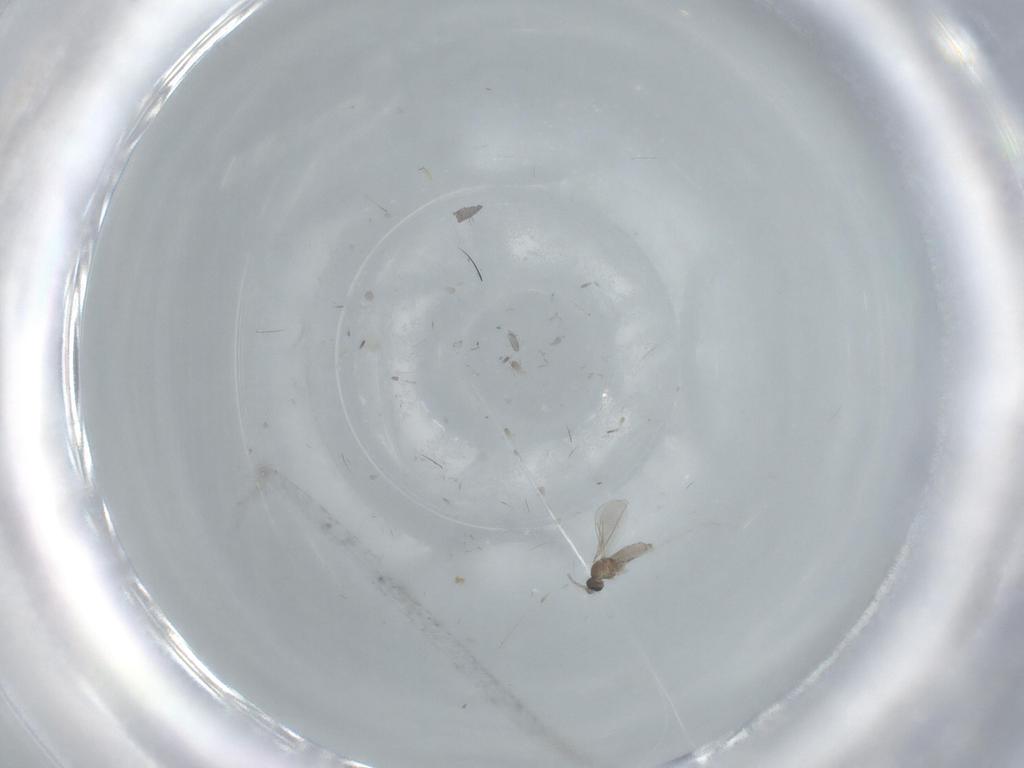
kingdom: Animalia
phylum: Arthropoda
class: Insecta
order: Diptera
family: Cecidomyiidae
